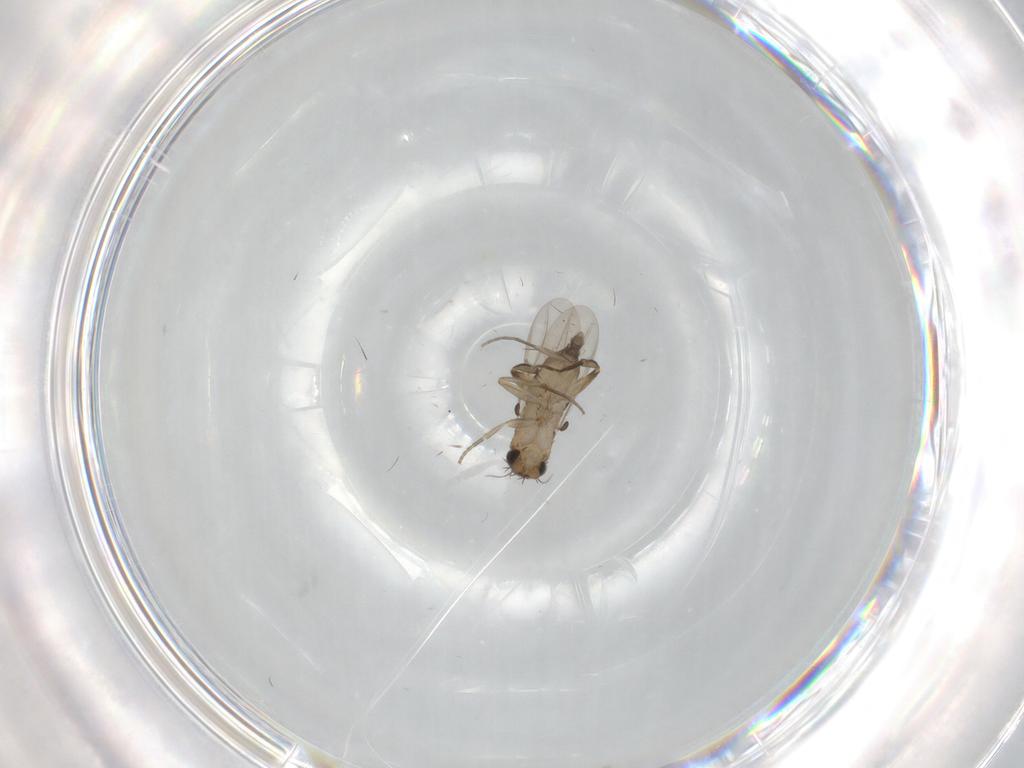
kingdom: Animalia
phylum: Arthropoda
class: Insecta
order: Diptera
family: Phoridae
